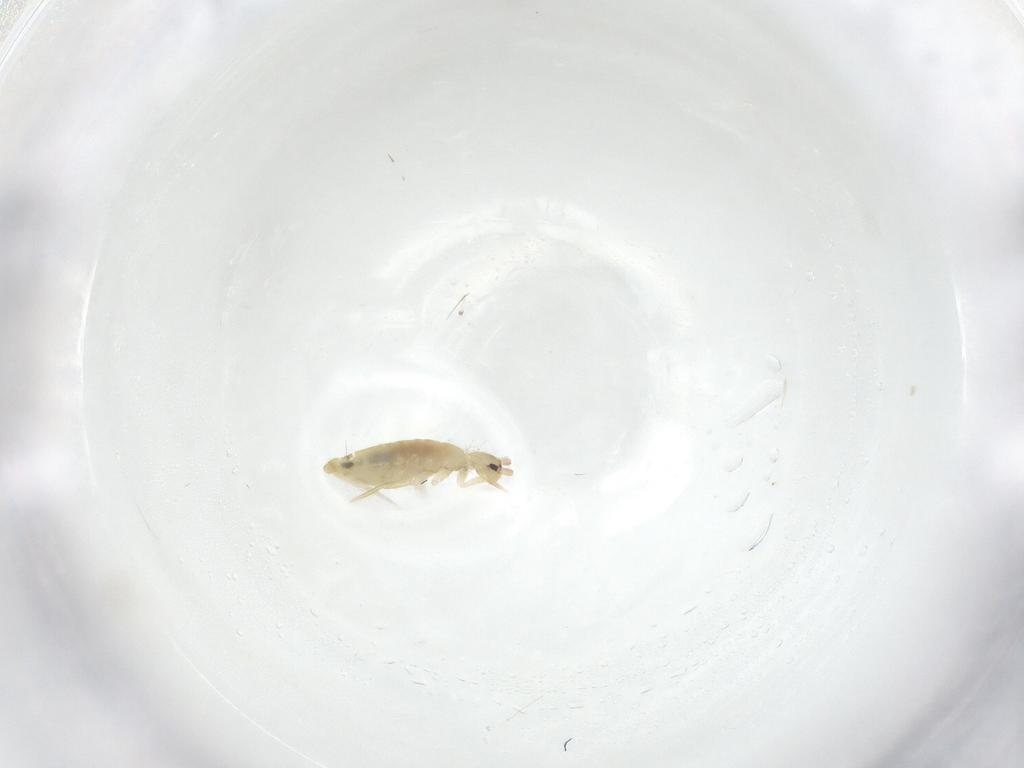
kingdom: Animalia
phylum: Arthropoda
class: Collembola
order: Entomobryomorpha
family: Entomobryidae
